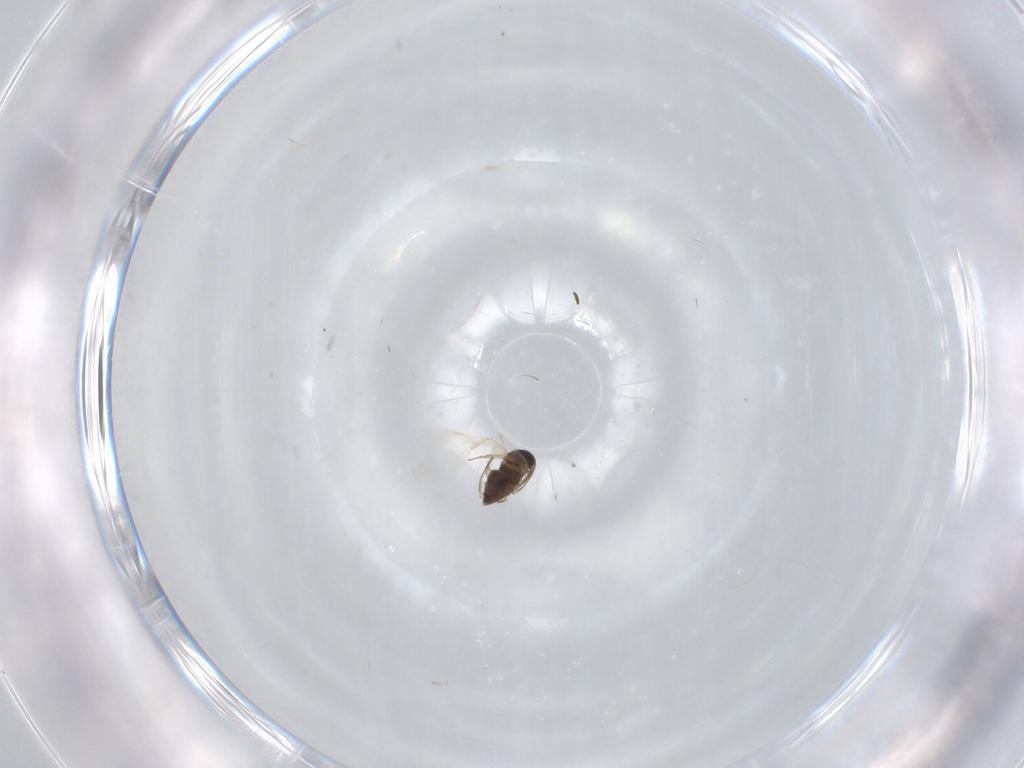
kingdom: Animalia
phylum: Arthropoda
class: Insecta
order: Diptera
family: Cecidomyiidae
